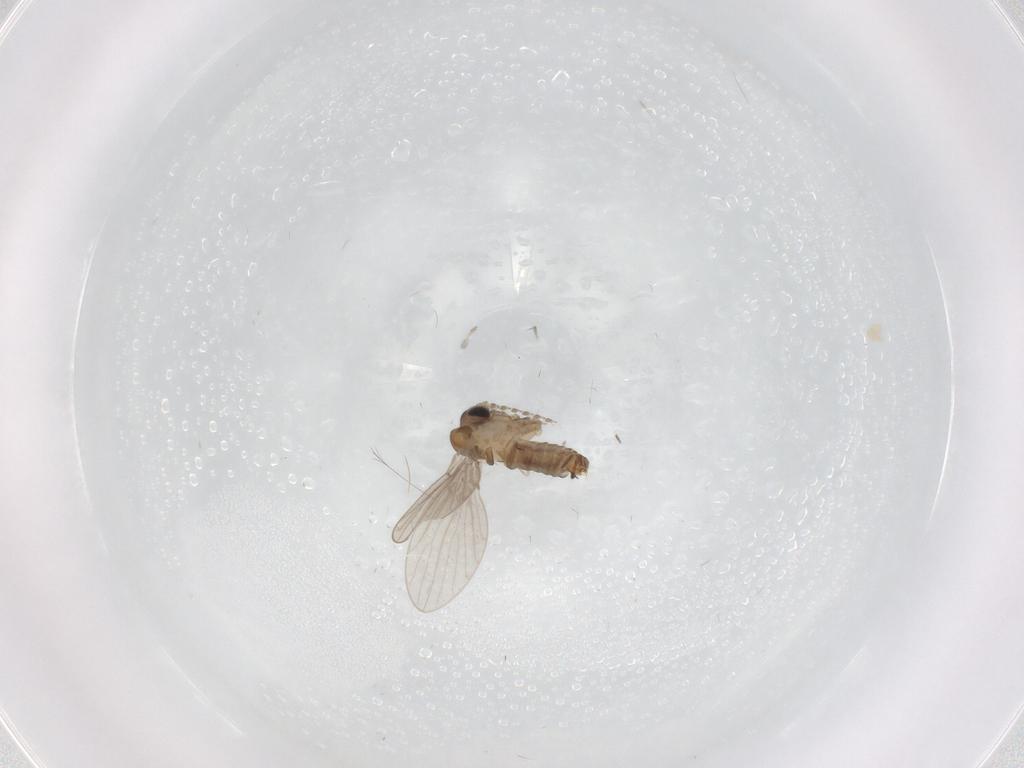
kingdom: Animalia
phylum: Arthropoda
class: Insecta
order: Diptera
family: Cecidomyiidae
